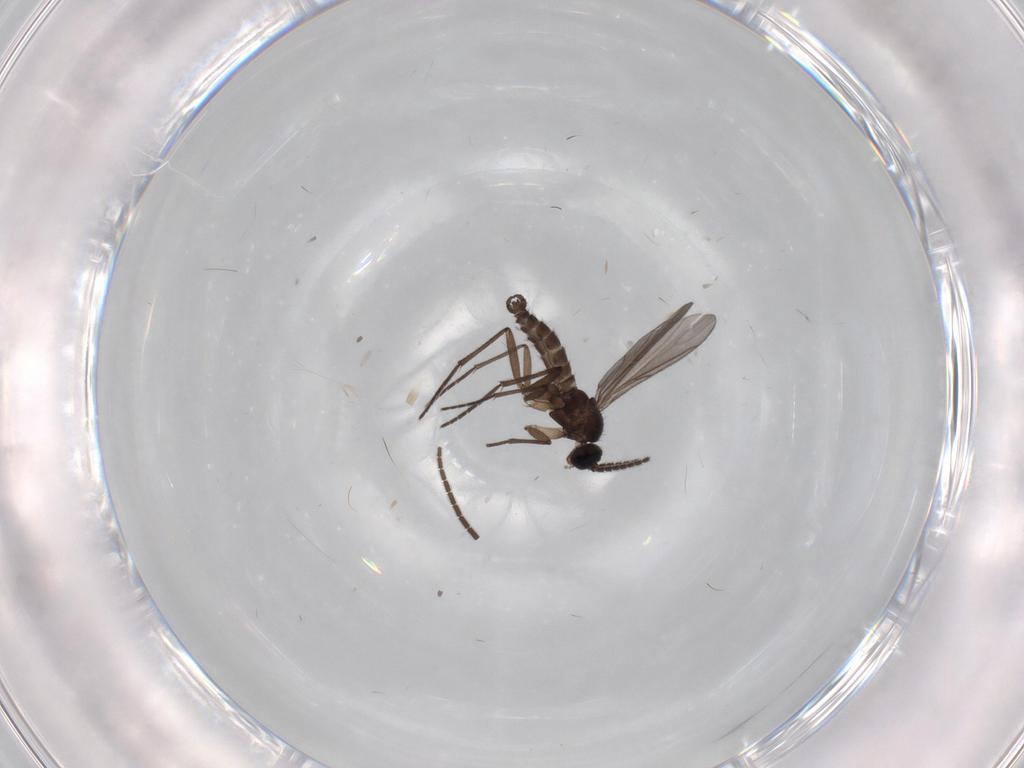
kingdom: Animalia
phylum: Arthropoda
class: Insecta
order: Diptera
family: Sciaridae
